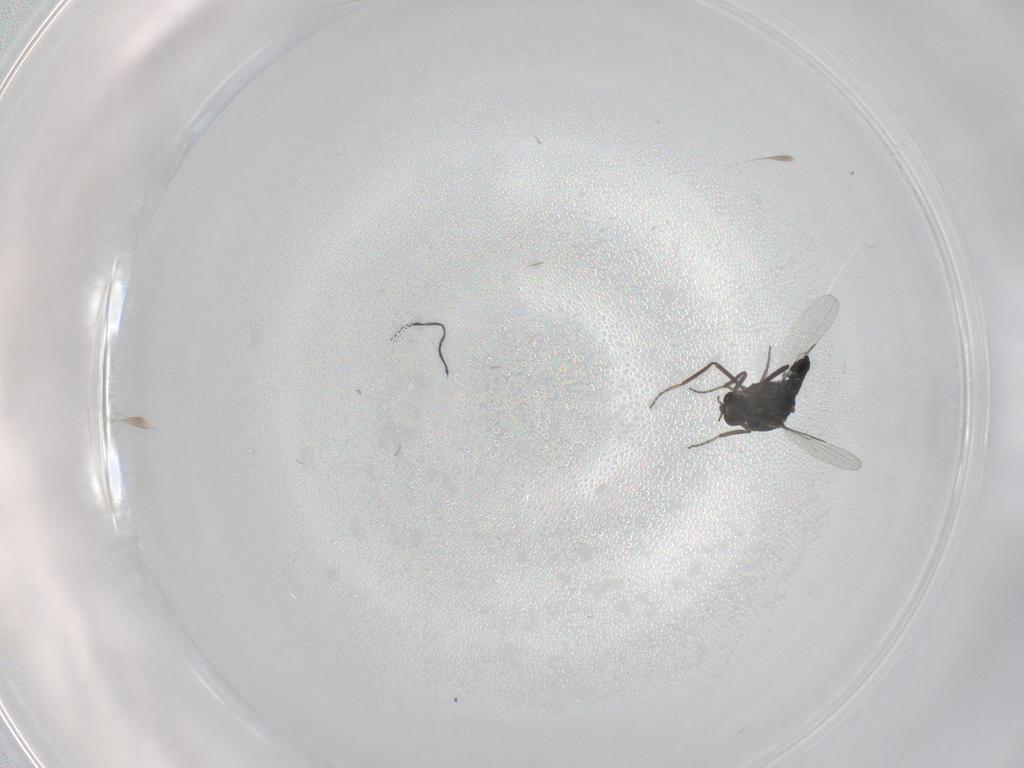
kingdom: Animalia
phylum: Arthropoda
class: Insecta
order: Diptera
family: Ceratopogonidae
